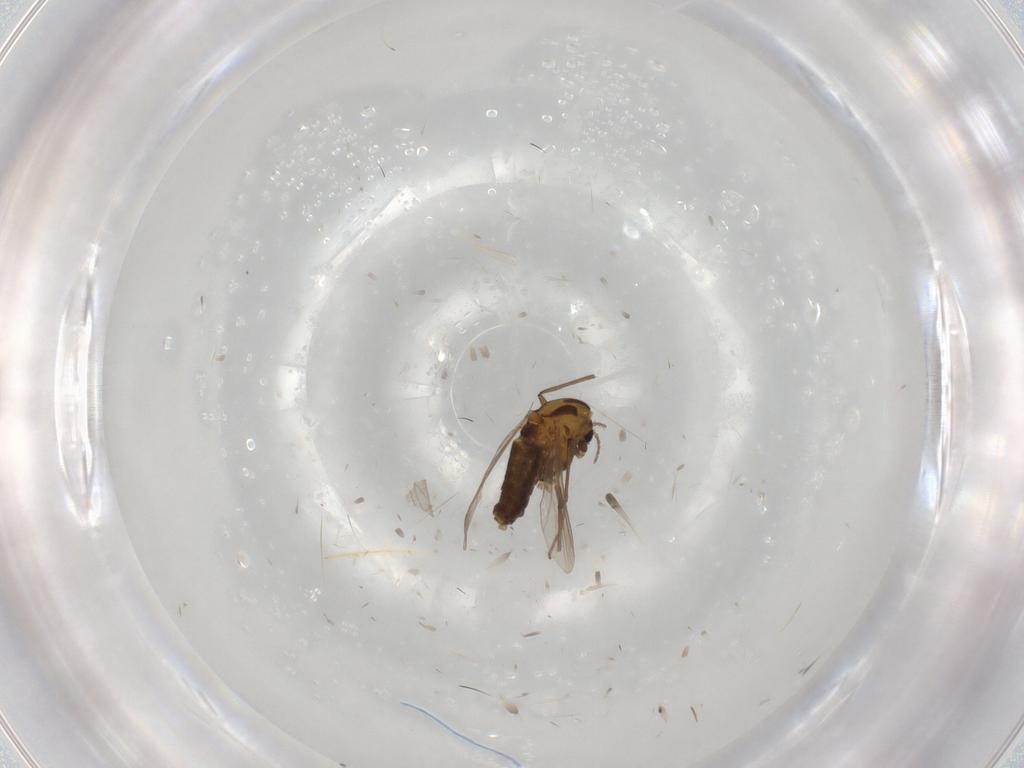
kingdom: Animalia
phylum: Arthropoda
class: Insecta
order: Diptera
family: Chironomidae
